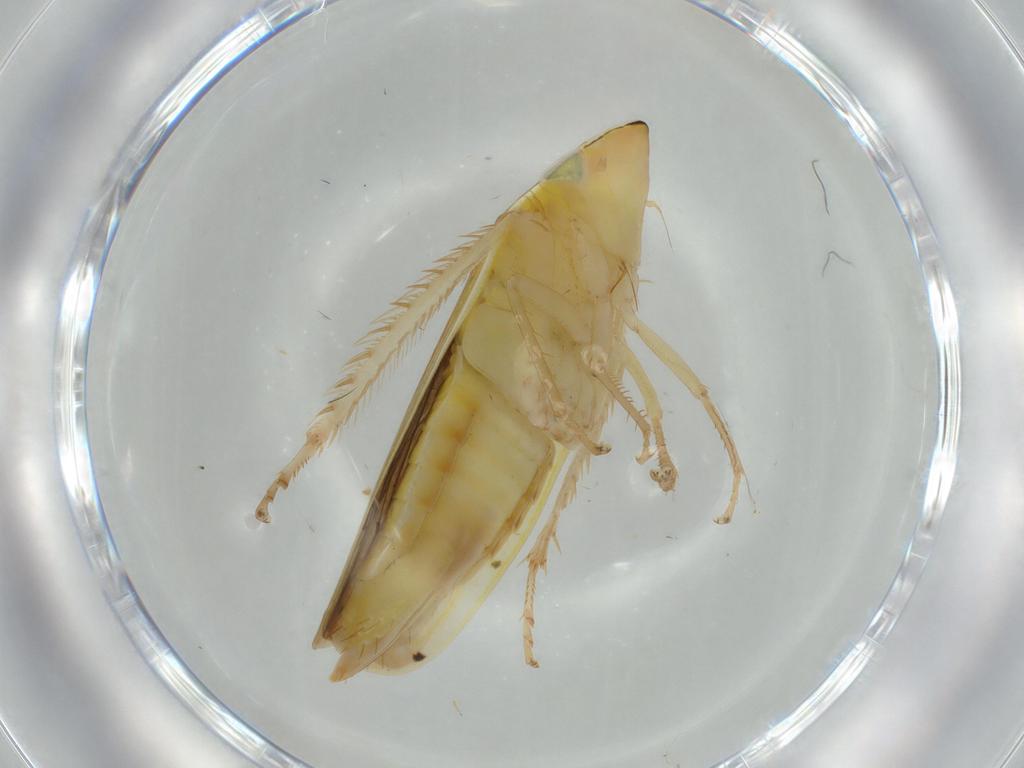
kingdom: Animalia
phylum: Arthropoda
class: Insecta
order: Hemiptera
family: Cicadellidae
